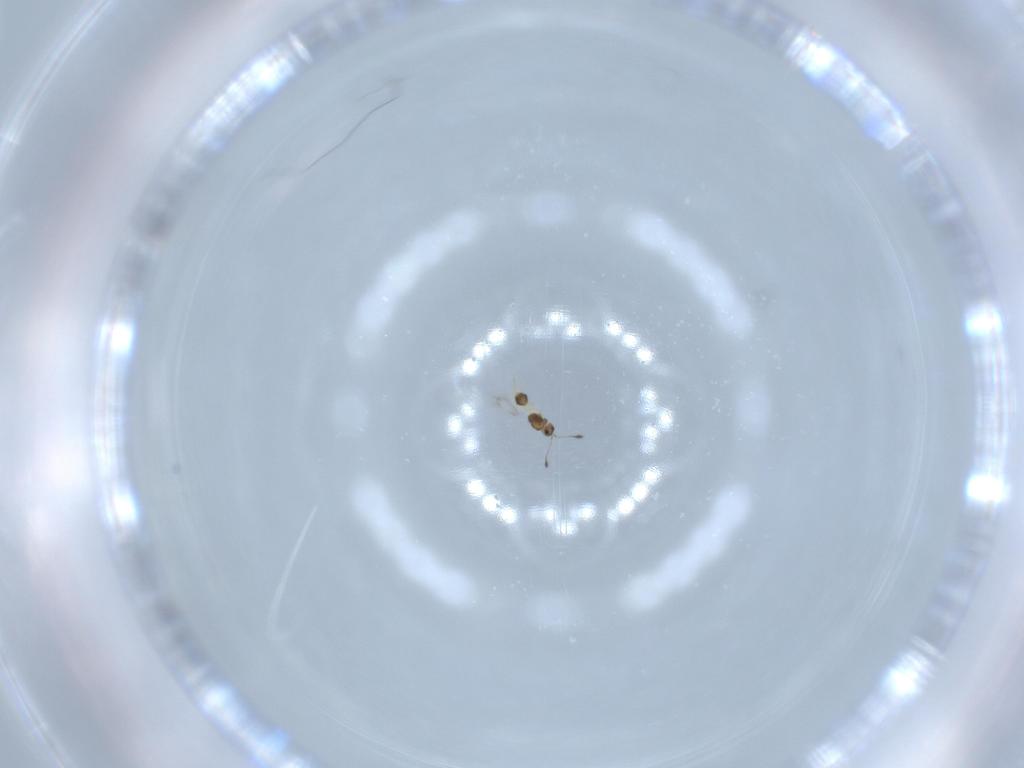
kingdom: Animalia
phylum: Arthropoda
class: Insecta
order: Hymenoptera
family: Mymarommatidae
